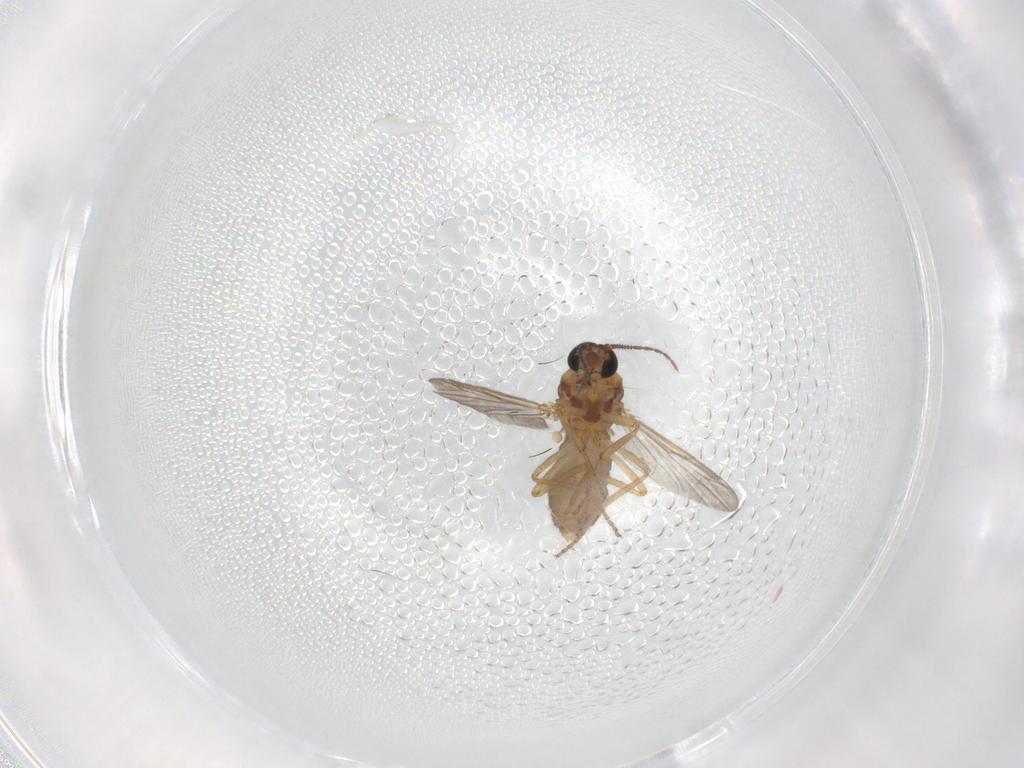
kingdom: Animalia
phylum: Arthropoda
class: Insecta
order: Diptera
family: Ceratopogonidae
